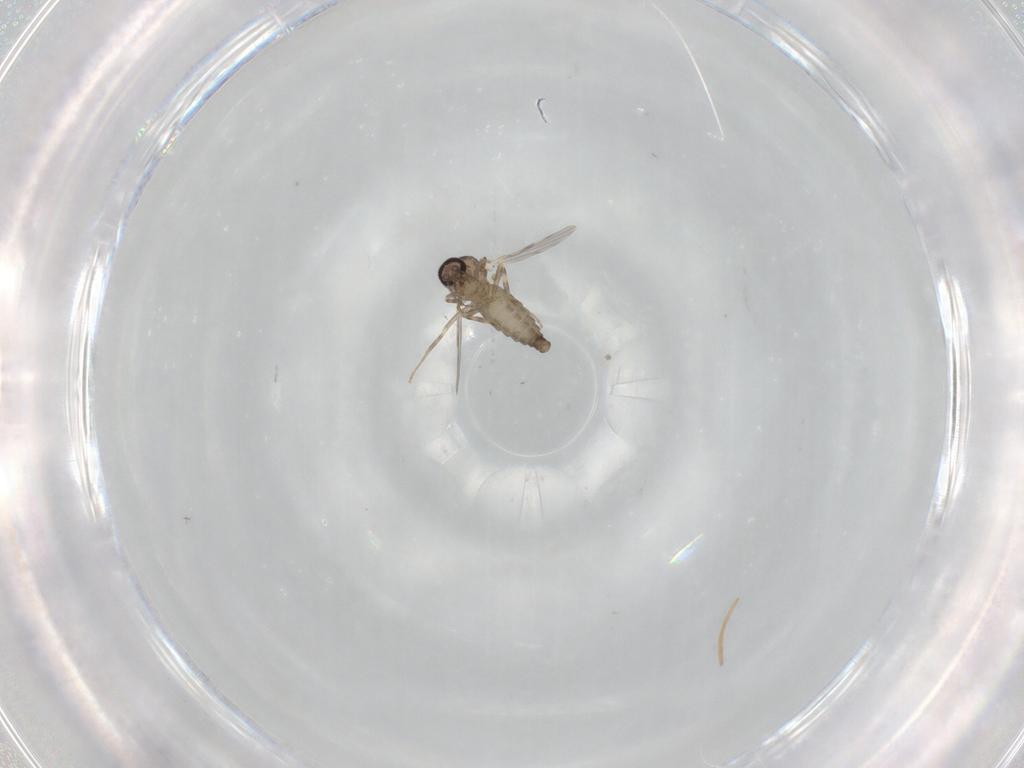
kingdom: Animalia
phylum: Arthropoda
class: Insecta
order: Diptera
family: Ceratopogonidae
